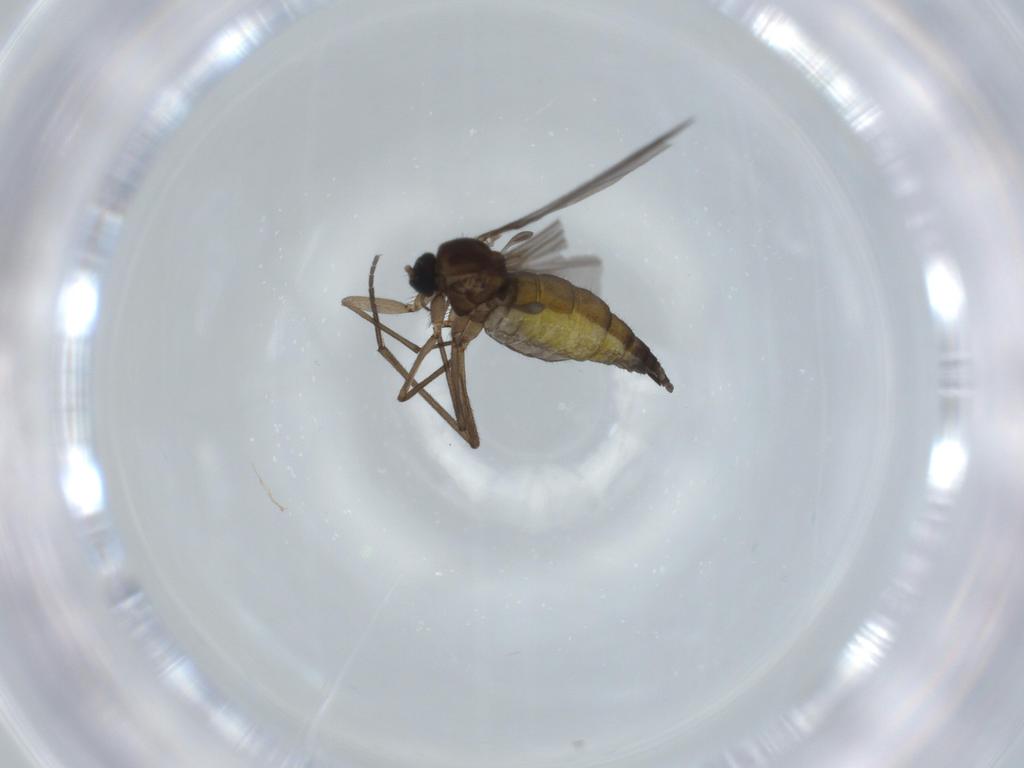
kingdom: Animalia
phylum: Arthropoda
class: Insecta
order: Diptera
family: Sciaridae
